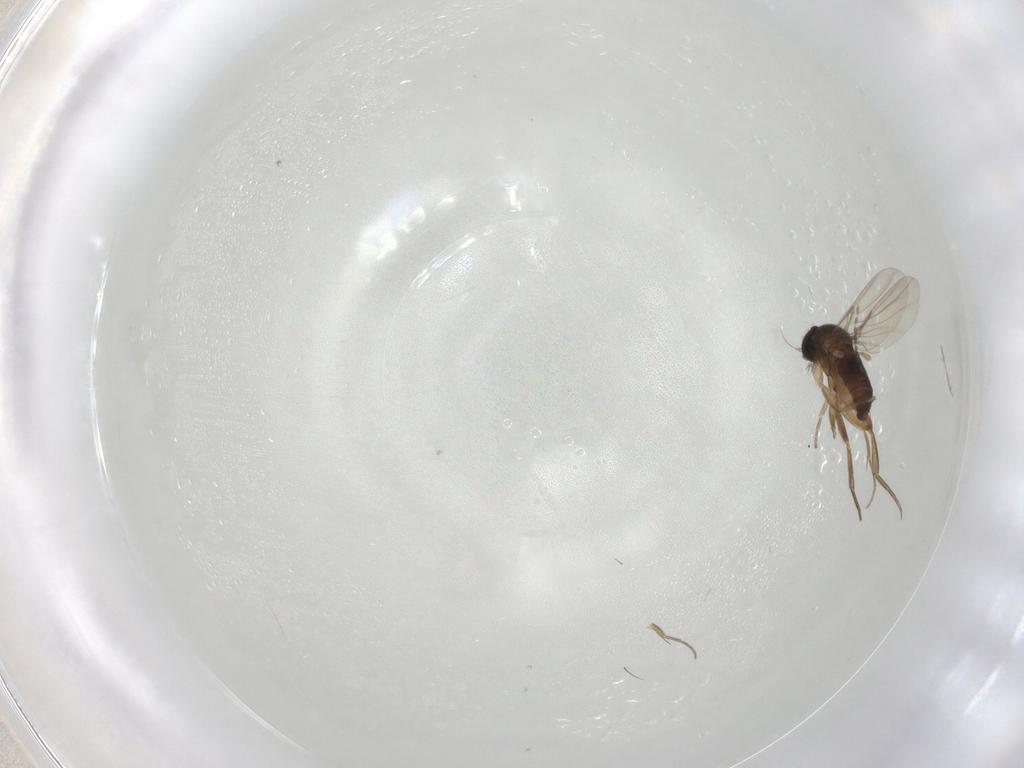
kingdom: Animalia
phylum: Arthropoda
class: Insecta
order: Diptera
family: Phoridae
